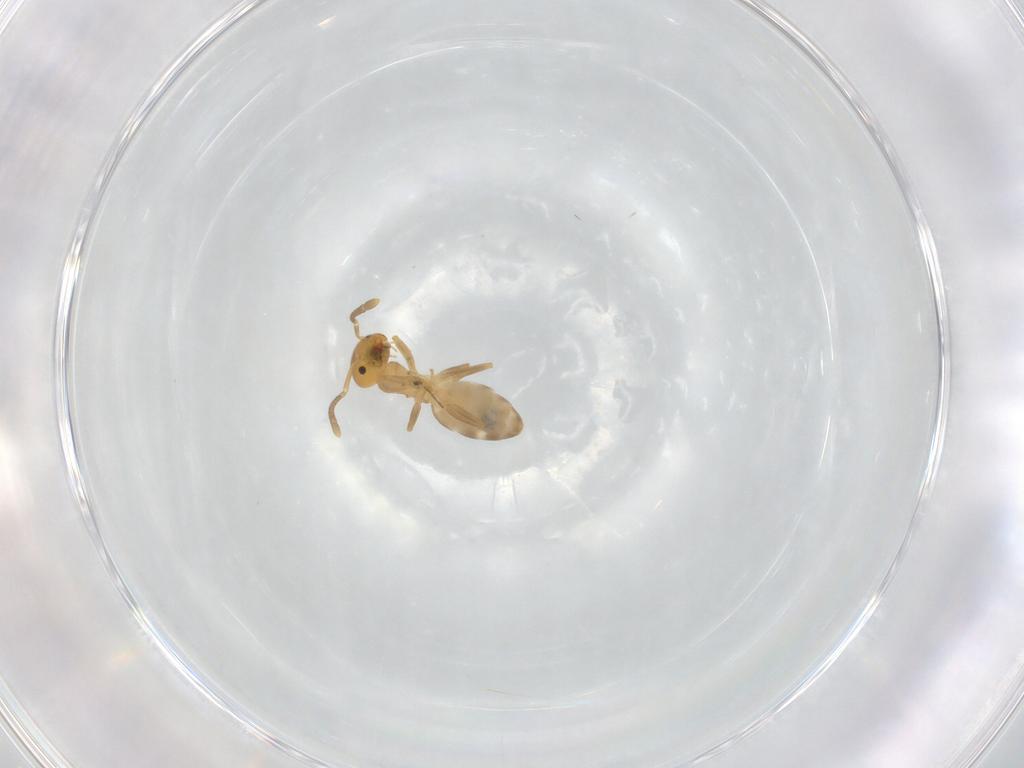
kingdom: Animalia
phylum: Arthropoda
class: Insecta
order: Hymenoptera
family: Formicidae
